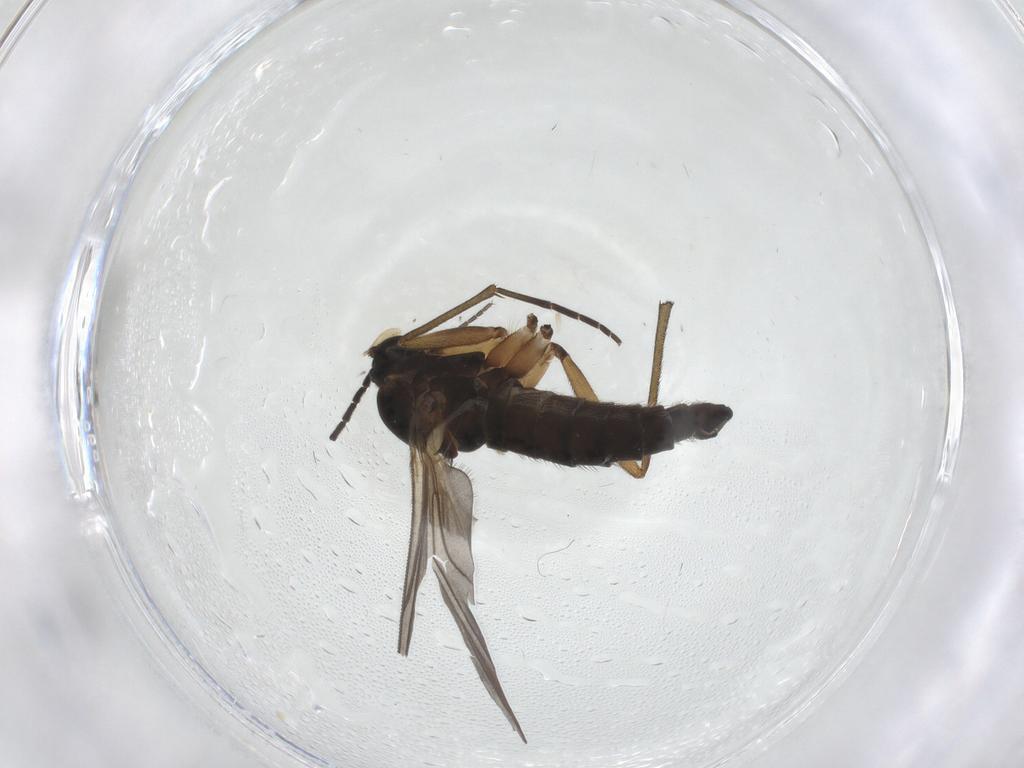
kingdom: Animalia
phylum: Arthropoda
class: Insecta
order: Diptera
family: Sciaridae
